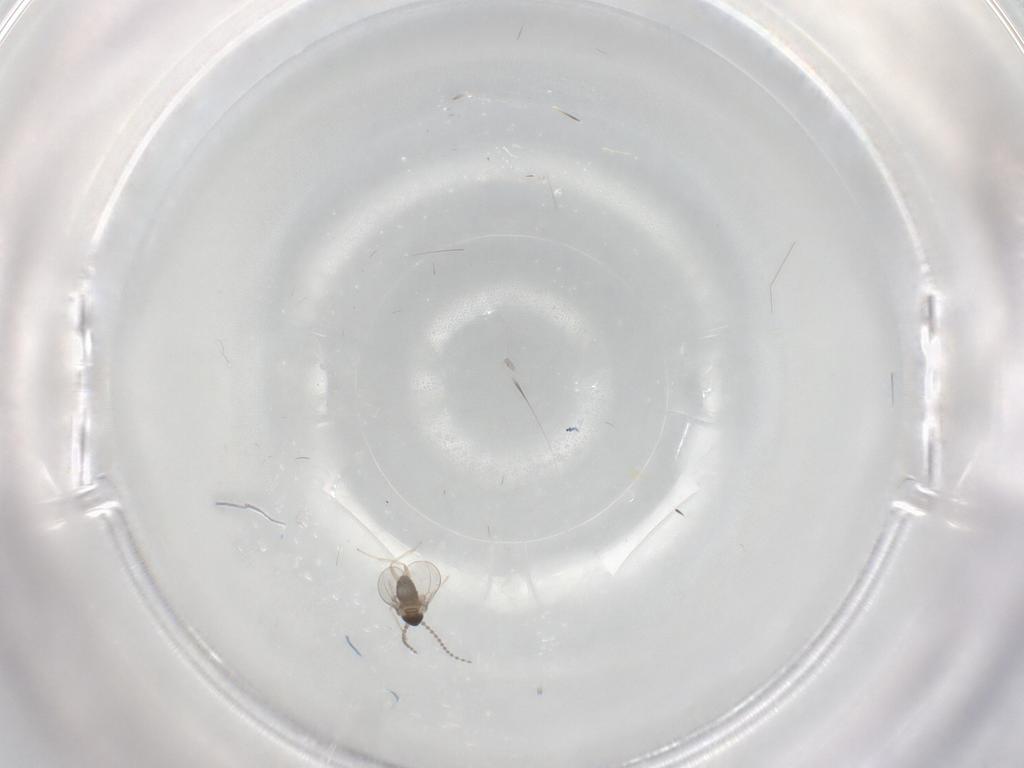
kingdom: Animalia
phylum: Arthropoda
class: Insecta
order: Diptera
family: Cecidomyiidae
